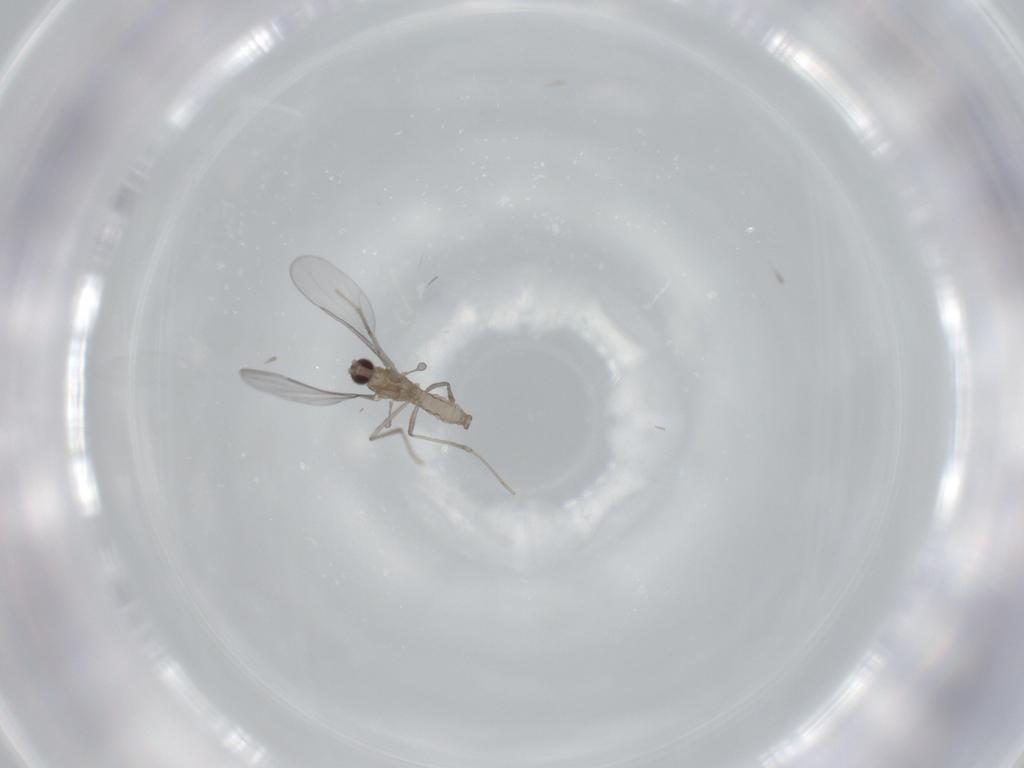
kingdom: Animalia
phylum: Arthropoda
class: Insecta
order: Diptera
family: Cecidomyiidae
